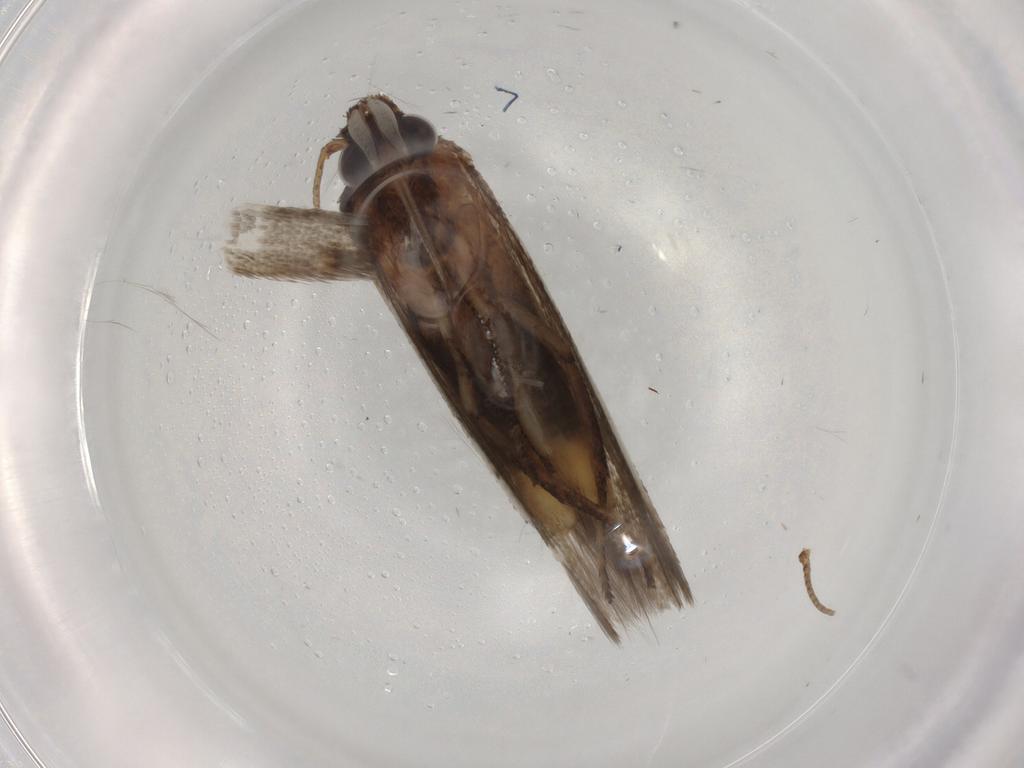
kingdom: Animalia
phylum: Arthropoda
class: Insecta
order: Lepidoptera
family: Blastobasidae
